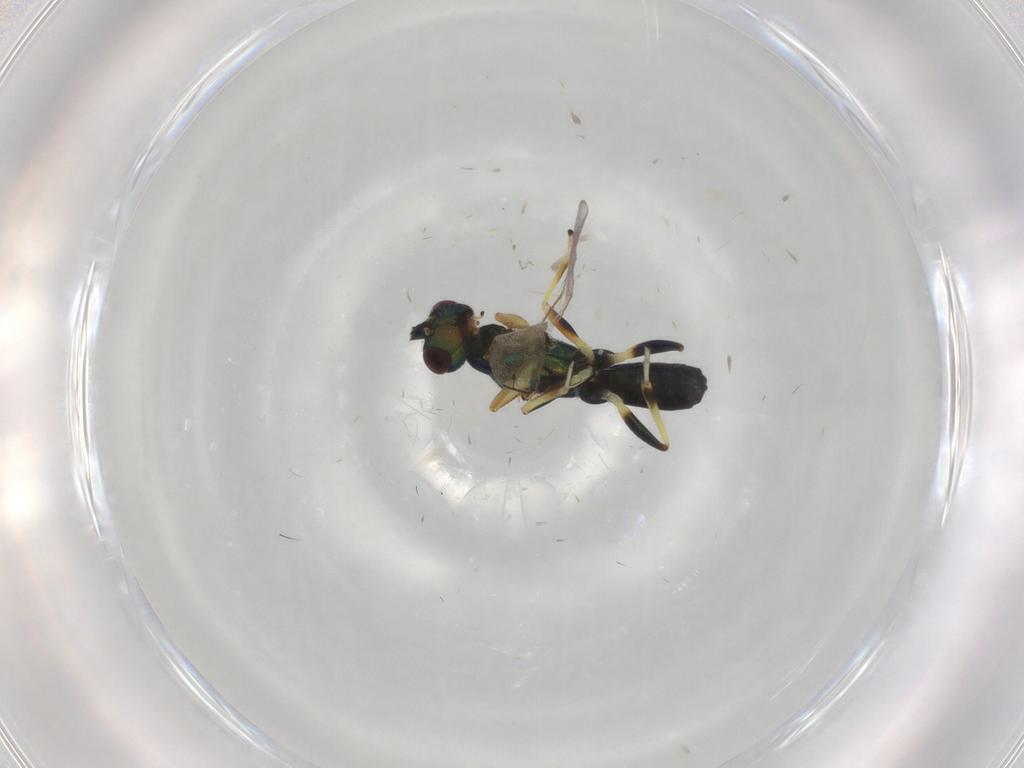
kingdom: Animalia
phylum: Arthropoda
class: Insecta
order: Hymenoptera
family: Eupelmidae
